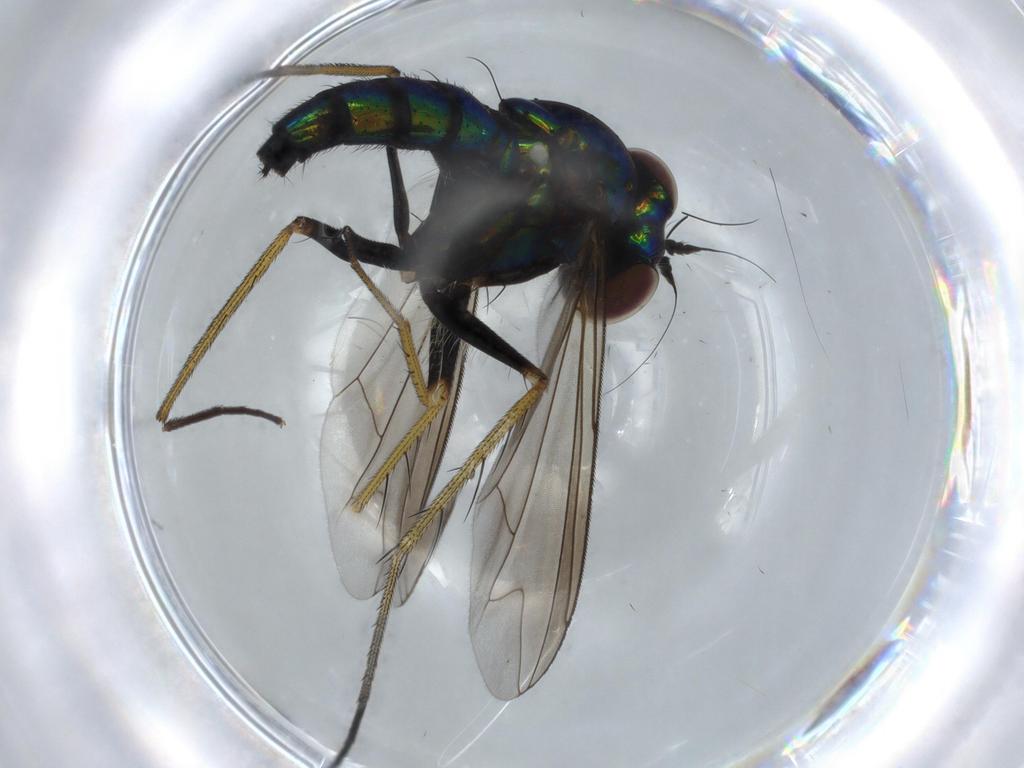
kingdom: Animalia
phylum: Arthropoda
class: Insecta
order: Diptera
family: Dolichopodidae
